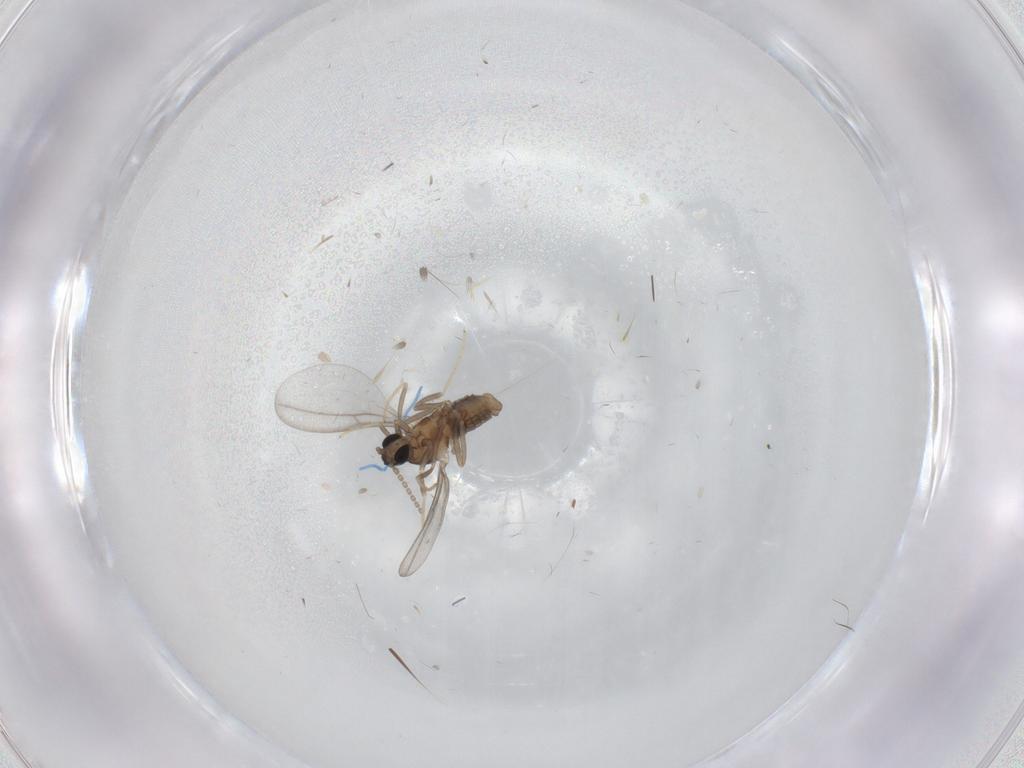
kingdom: Animalia
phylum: Arthropoda
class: Insecta
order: Diptera
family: Cecidomyiidae
